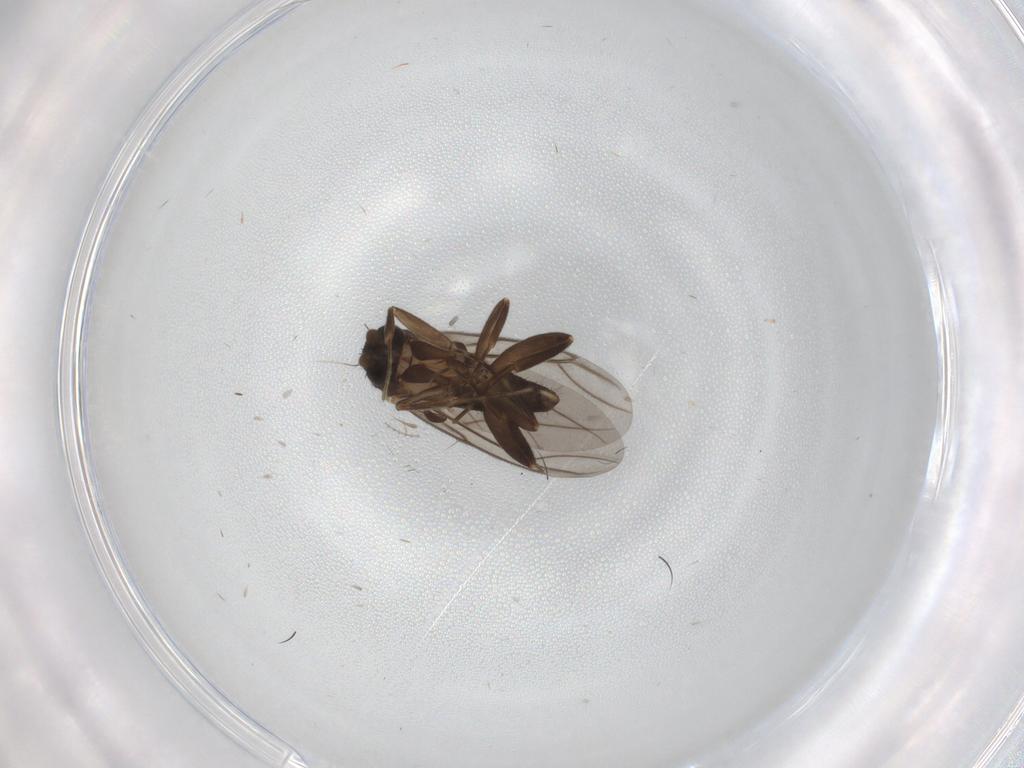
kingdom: Animalia
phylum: Arthropoda
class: Insecta
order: Diptera
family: Cecidomyiidae
